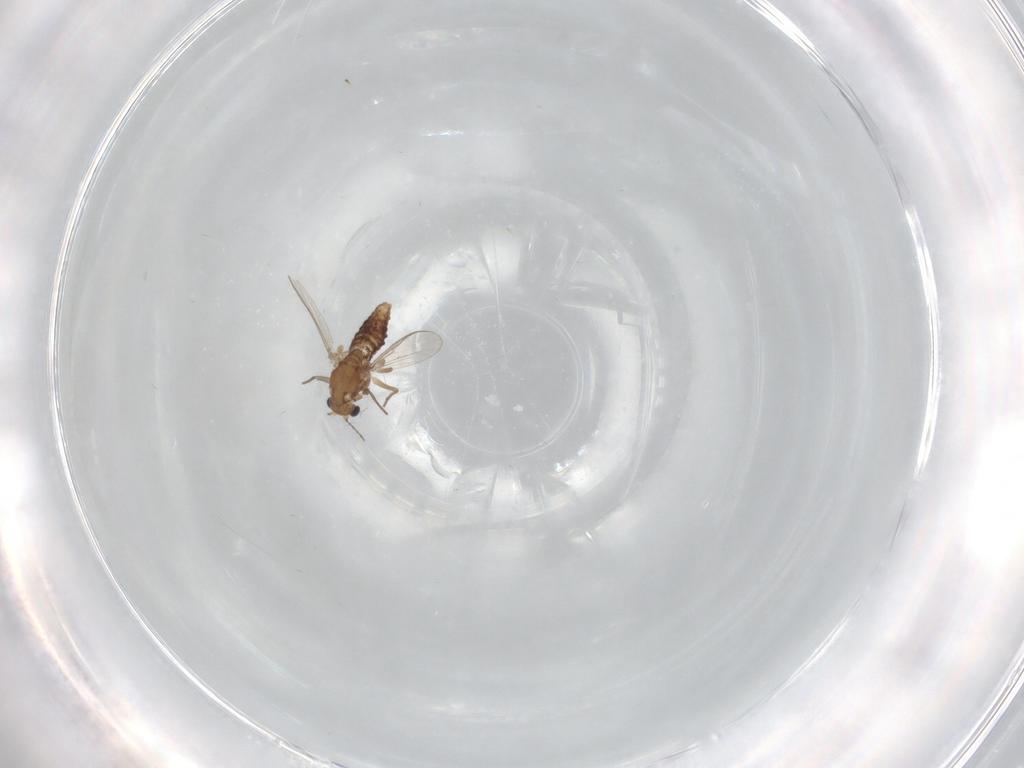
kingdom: Animalia
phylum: Arthropoda
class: Insecta
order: Diptera
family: Chironomidae
